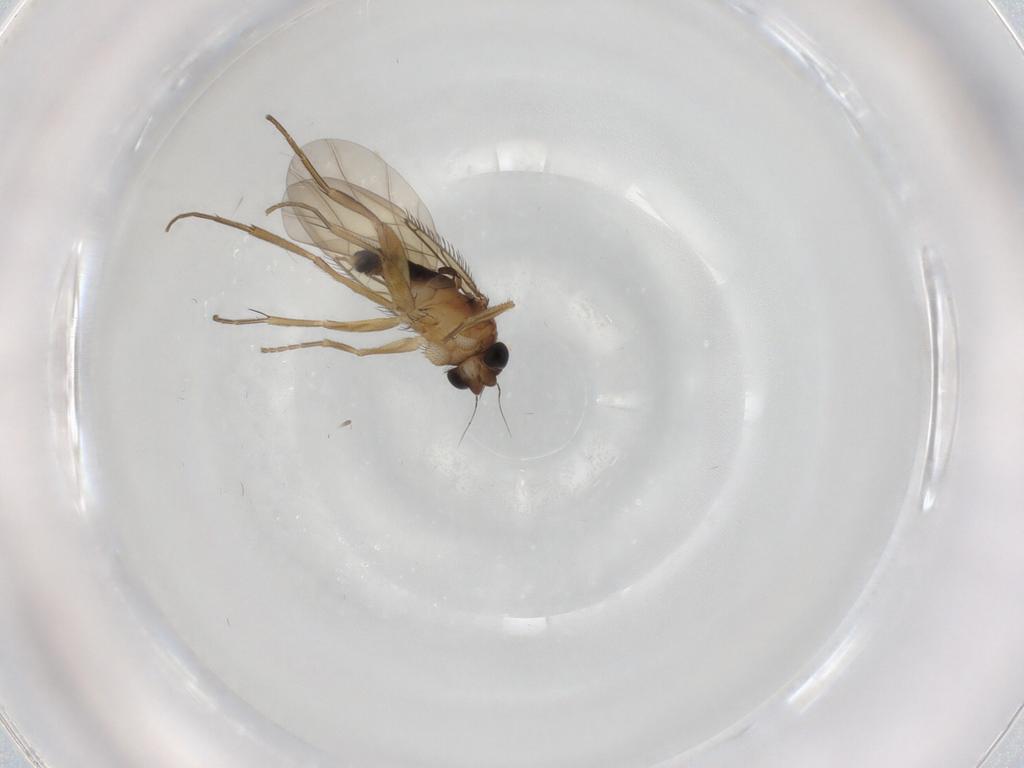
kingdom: Animalia
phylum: Arthropoda
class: Insecta
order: Diptera
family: Phoridae
